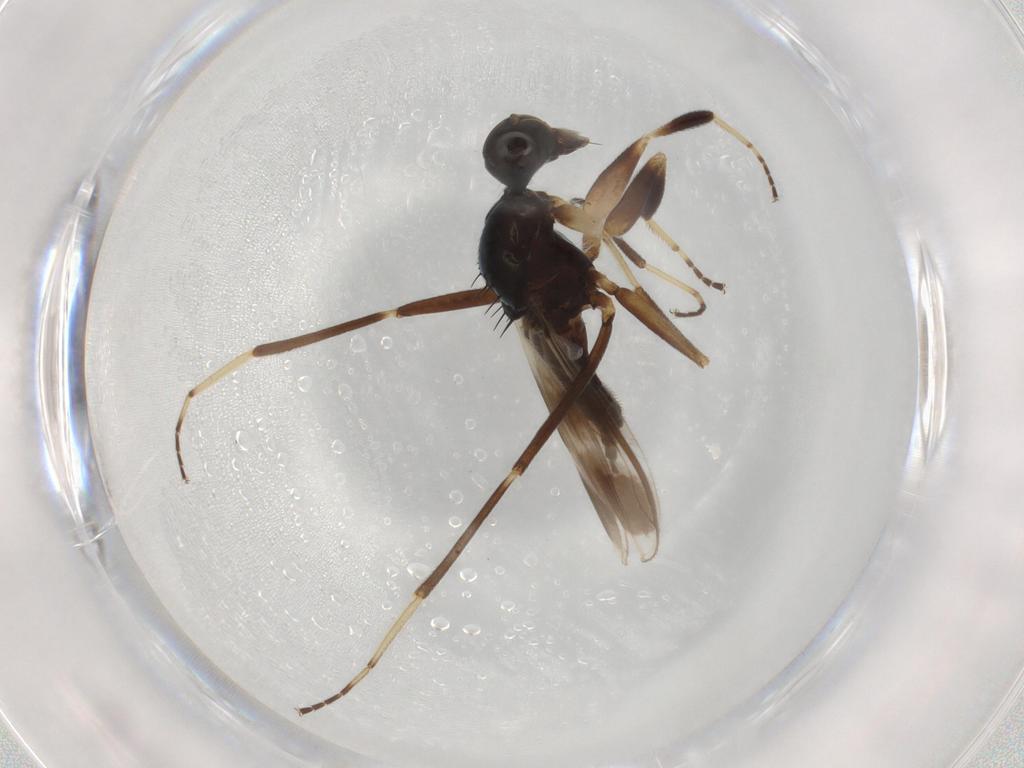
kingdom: Animalia
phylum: Arthropoda
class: Insecta
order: Diptera
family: Hybotidae
